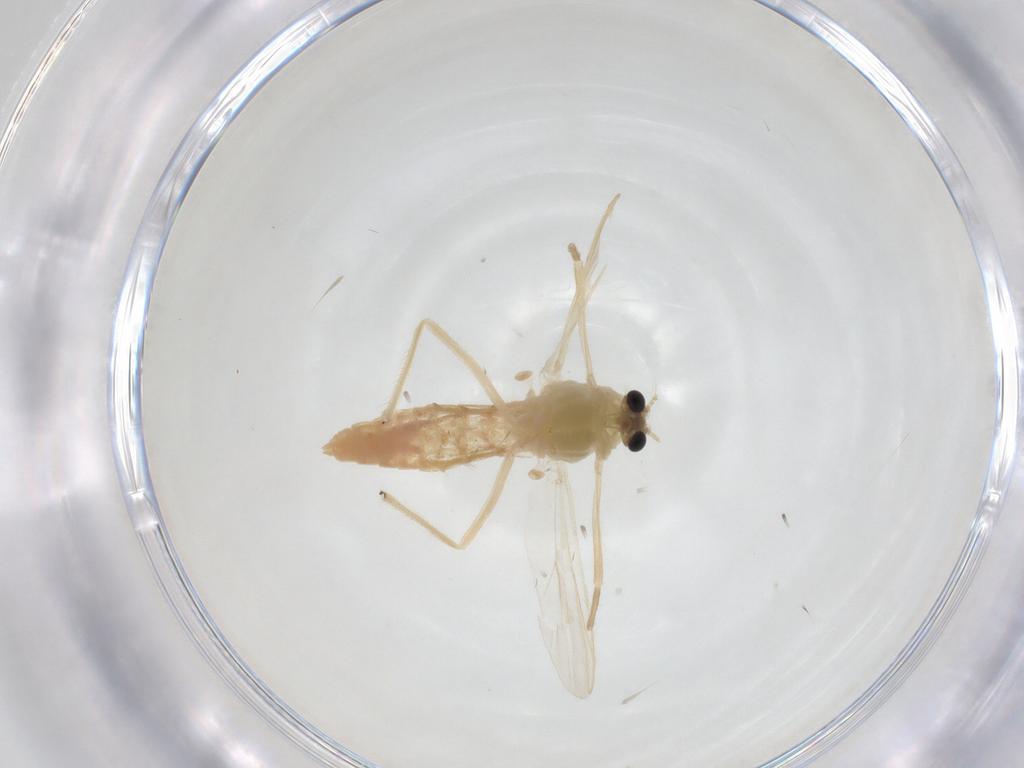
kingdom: Animalia
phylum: Arthropoda
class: Insecta
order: Diptera
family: Chironomidae
